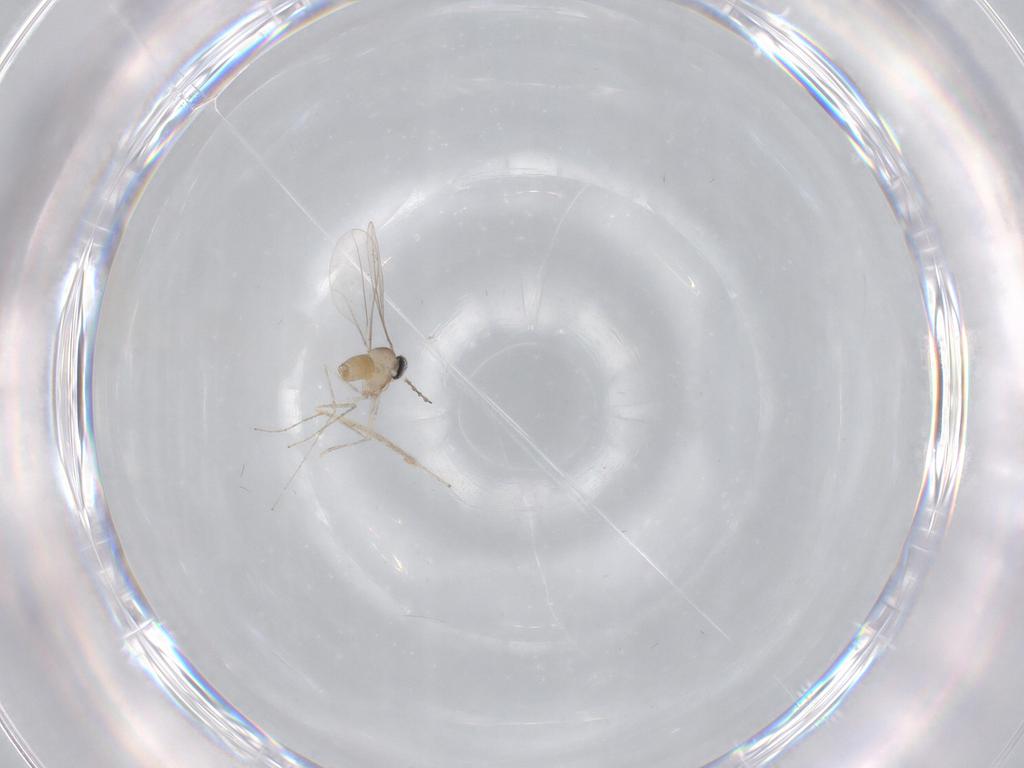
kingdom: Animalia
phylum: Arthropoda
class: Insecta
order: Diptera
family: Chironomidae
